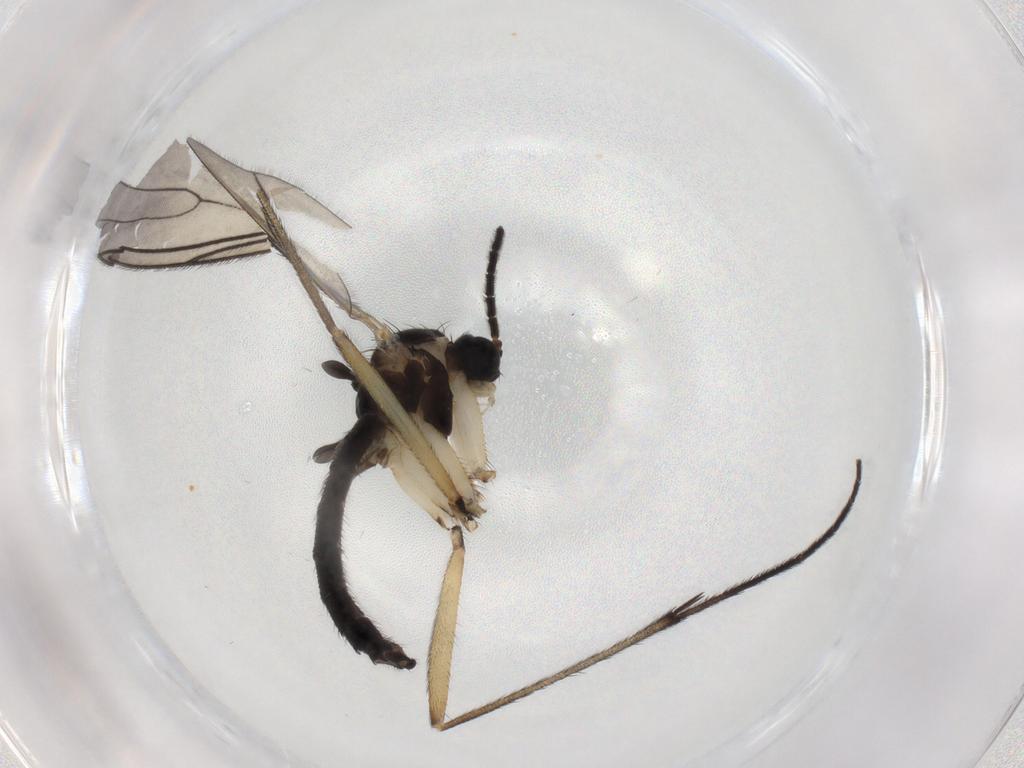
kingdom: Animalia
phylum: Arthropoda
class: Insecta
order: Diptera
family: Sciaridae
